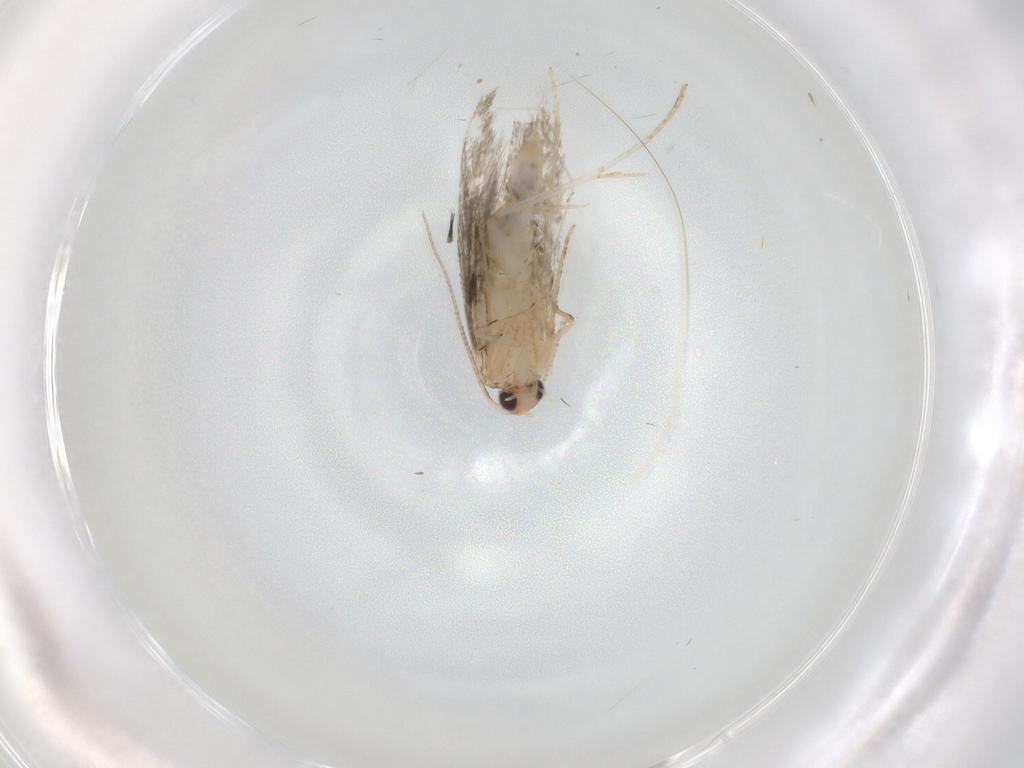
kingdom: Animalia
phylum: Arthropoda
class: Insecta
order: Lepidoptera
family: Tineidae
